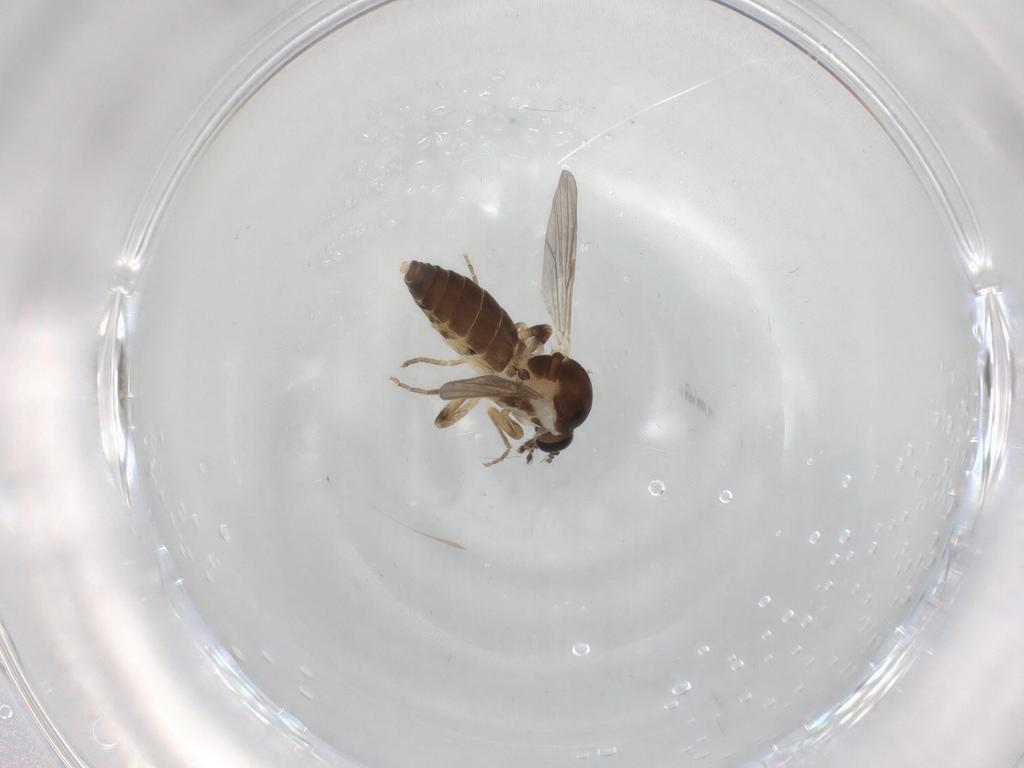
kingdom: Animalia
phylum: Arthropoda
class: Insecta
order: Diptera
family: Ceratopogonidae
